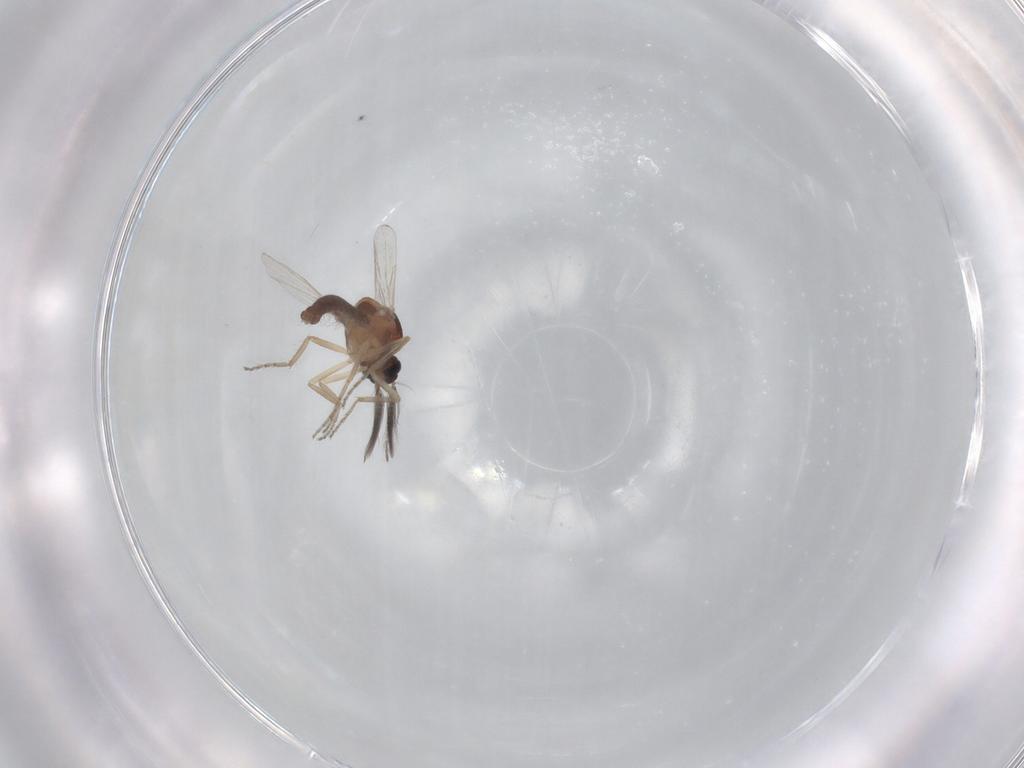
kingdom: Animalia
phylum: Arthropoda
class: Insecta
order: Diptera
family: Ceratopogonidae
